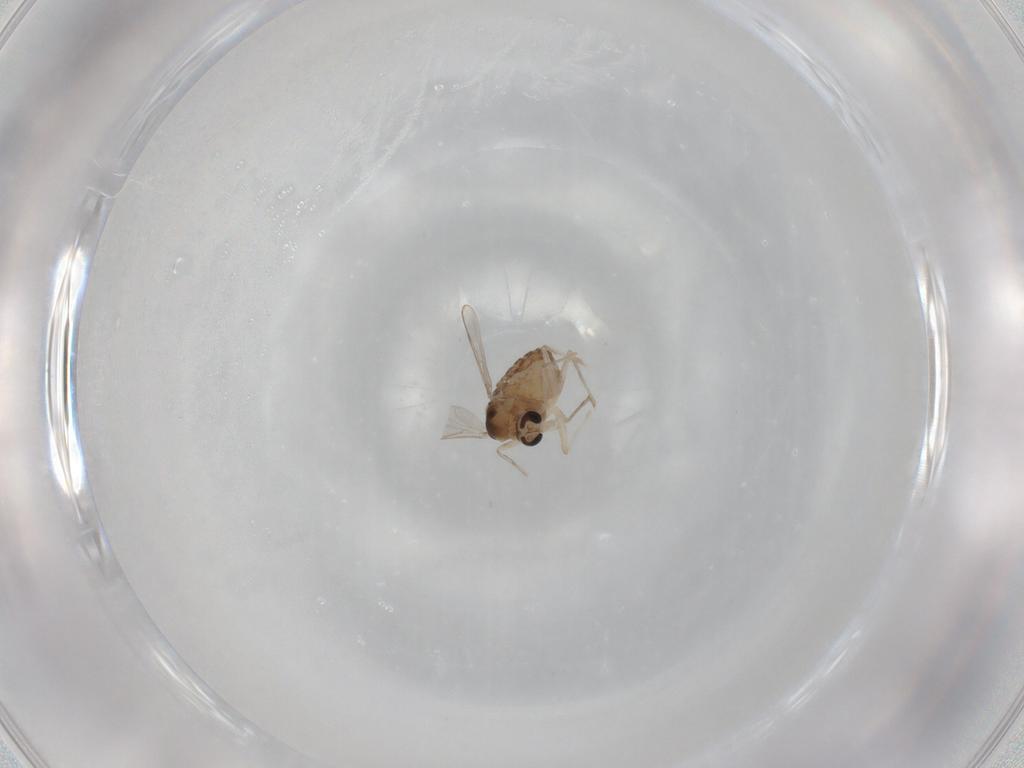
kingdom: Animalia
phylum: Arthropoda
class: Insecta
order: Diptera
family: Chironomidae
